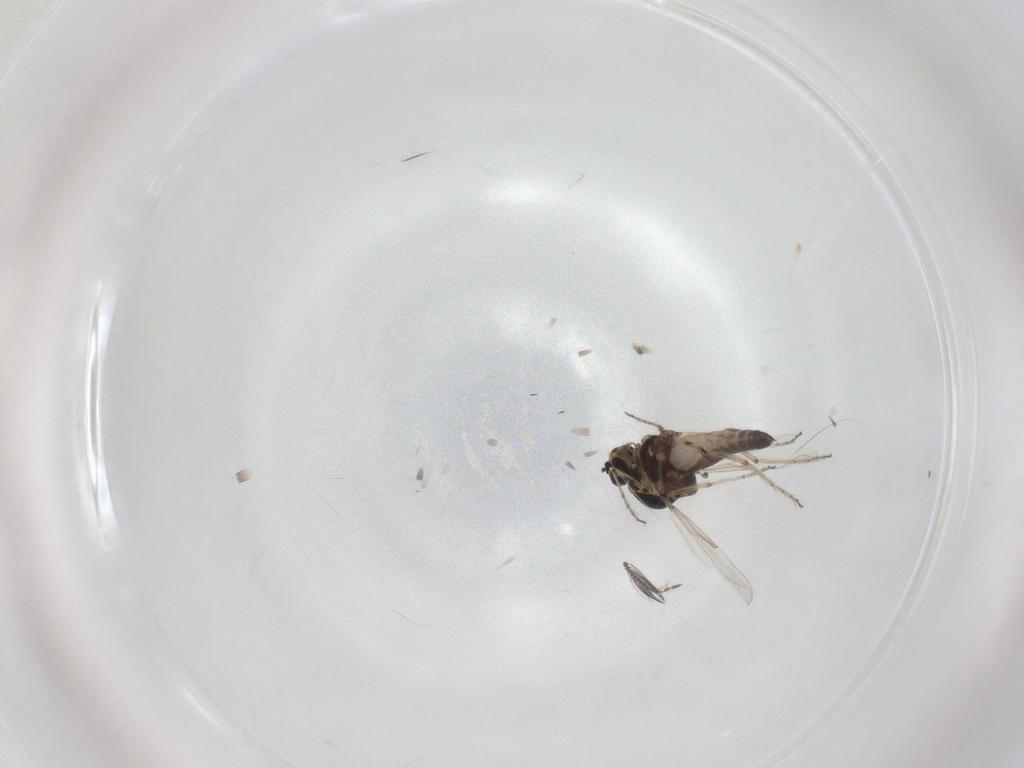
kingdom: Animalia
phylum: Arthropoda
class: Insecta
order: Diptera
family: Ceratopogonidae
